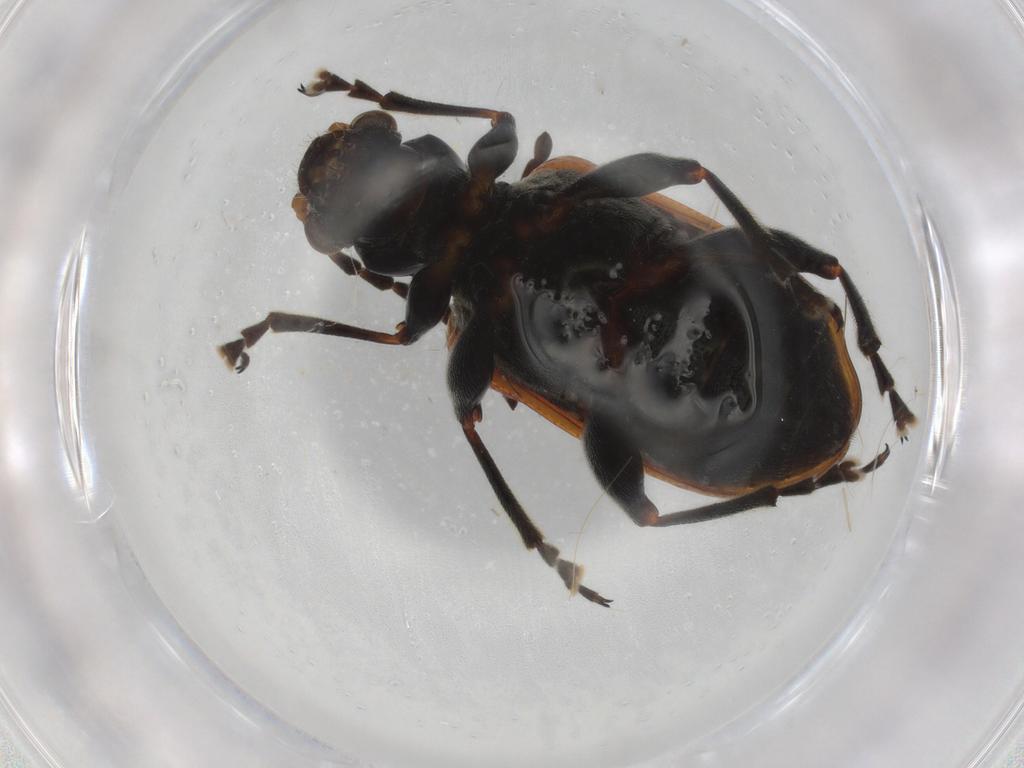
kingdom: Animalia
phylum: Arthropoda
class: Insecta
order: Coleoptera
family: Chrysomelidae
